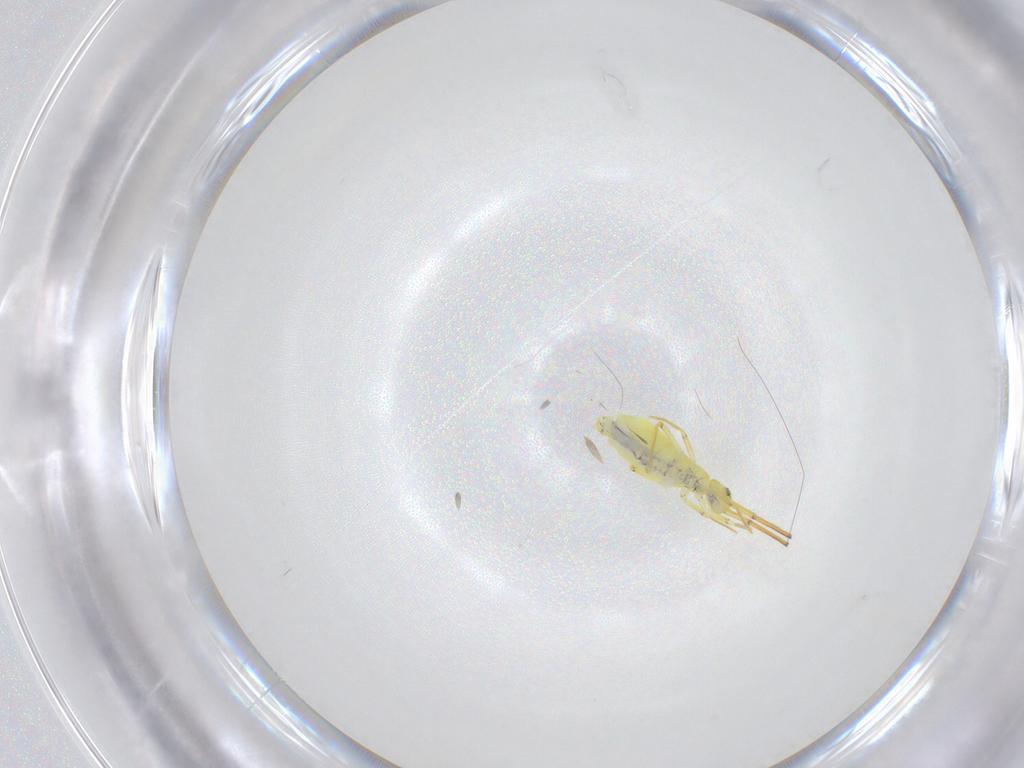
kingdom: Animalia
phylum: Arthropoda
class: Collembola
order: Entomobryomorpha
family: Entomobryidae
